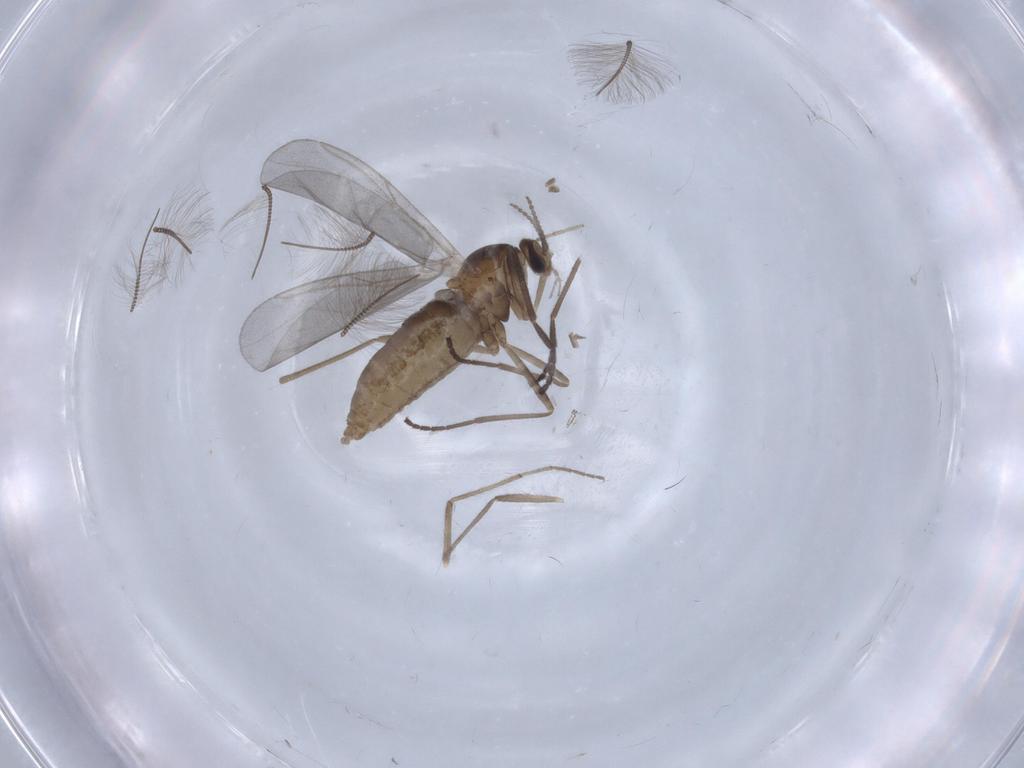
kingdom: Animalia
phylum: Arthropoda
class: Insecta
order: Diptera
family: Cecidomyiidae
